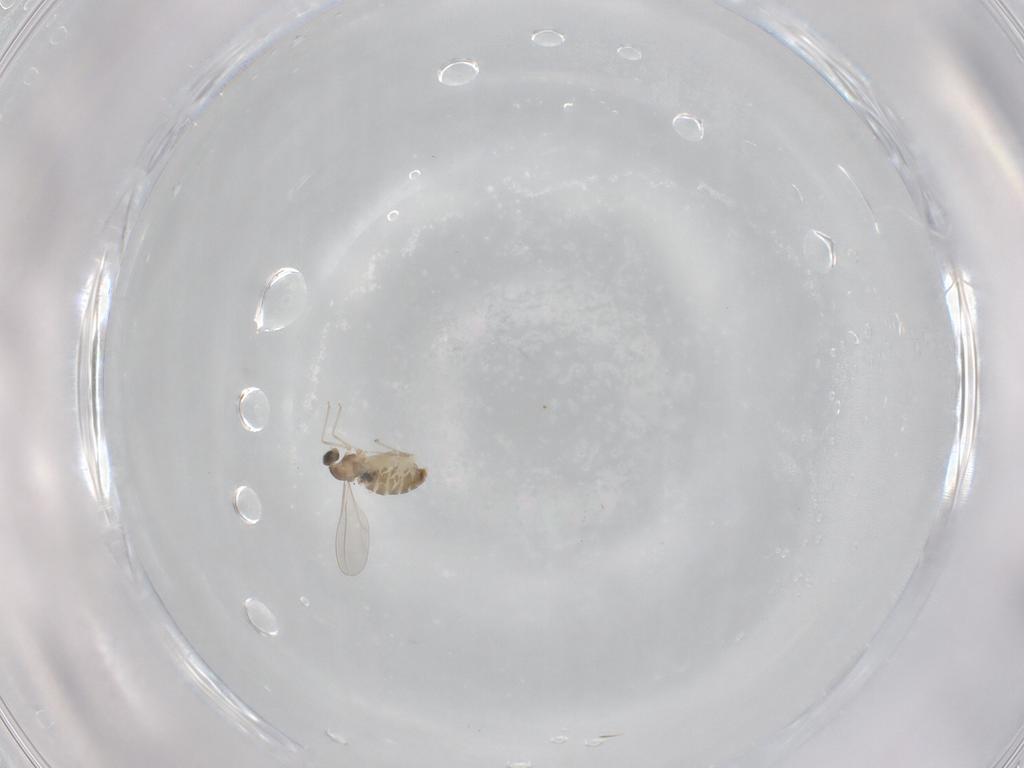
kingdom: Animalia
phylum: Arthropoda
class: Insecta
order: Diptera
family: Chironomidae
